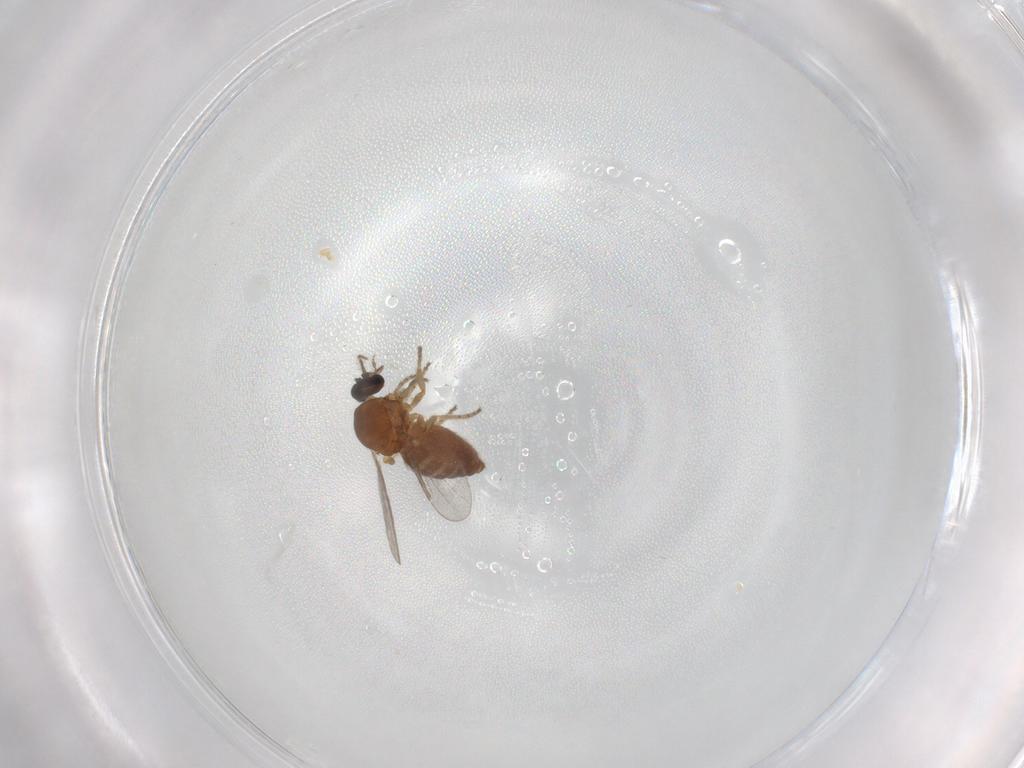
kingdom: Animalia
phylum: Arthropoda
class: Insecta
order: Diptera
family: Ceratopogonidae
